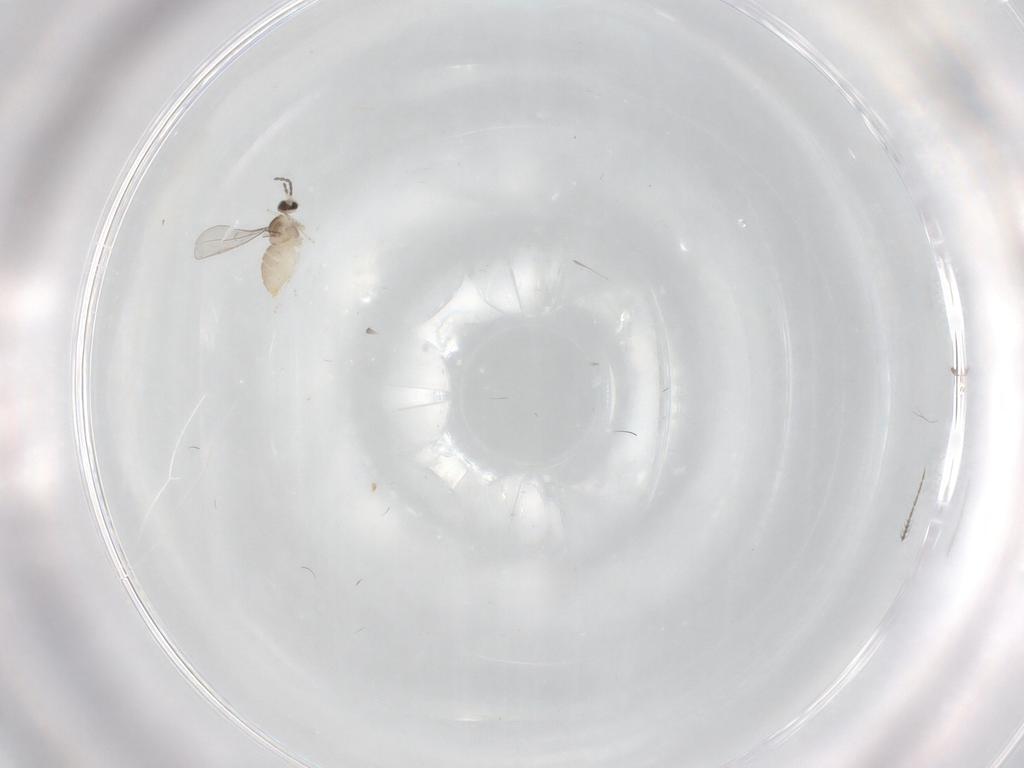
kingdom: Animalia
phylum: Arthropoda
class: Insecta
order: Diptera
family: Cecidomyiidae
